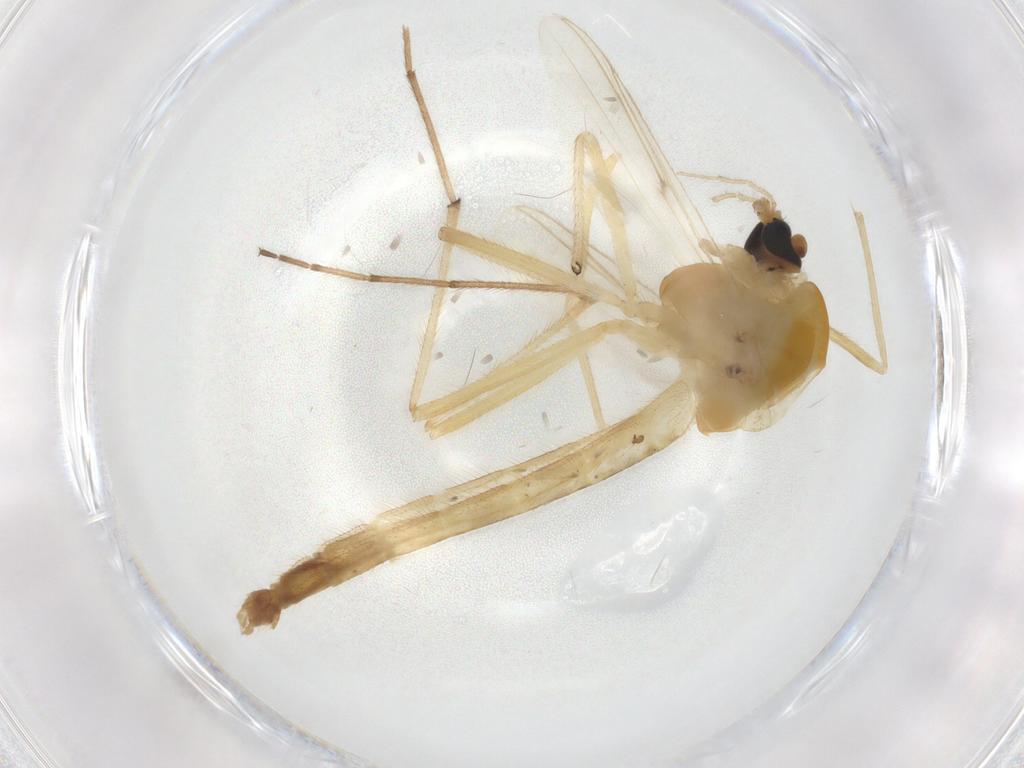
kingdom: Animalia
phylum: Arthropoda
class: Insecta
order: Diptera
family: Chironomidae
